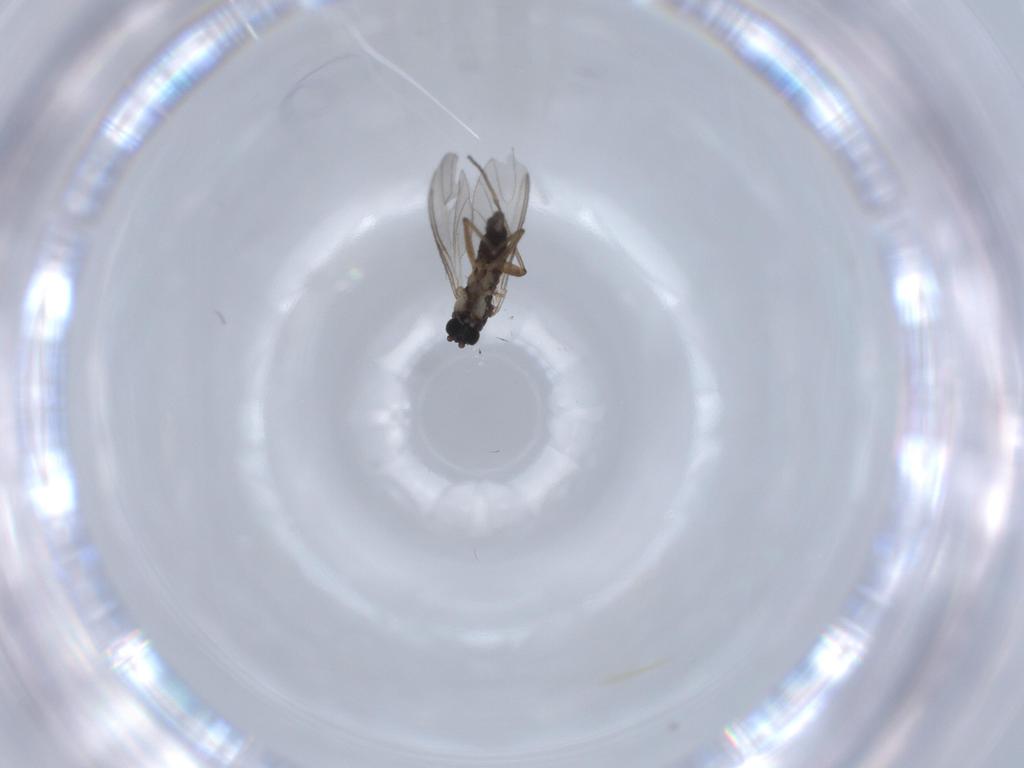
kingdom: Animalia
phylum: Arthropoda
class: Insecta
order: Diptera
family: Sciaridae
